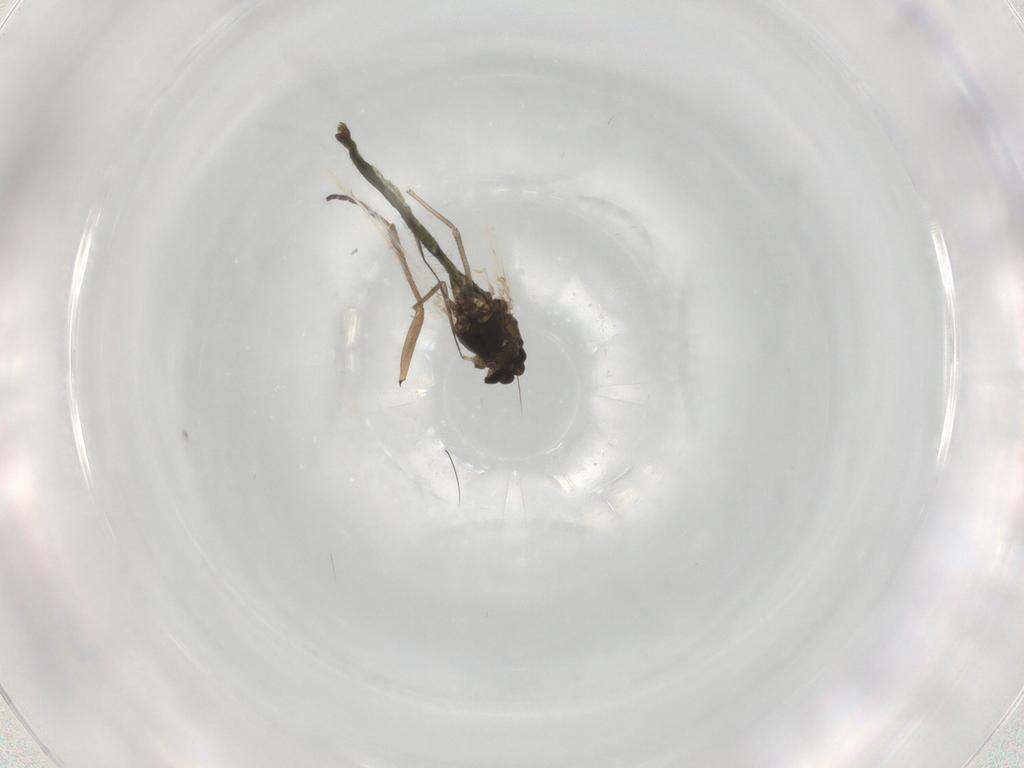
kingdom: Animalia
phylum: Arthropoda
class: Insecta
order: Diptera
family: Sciaridae
